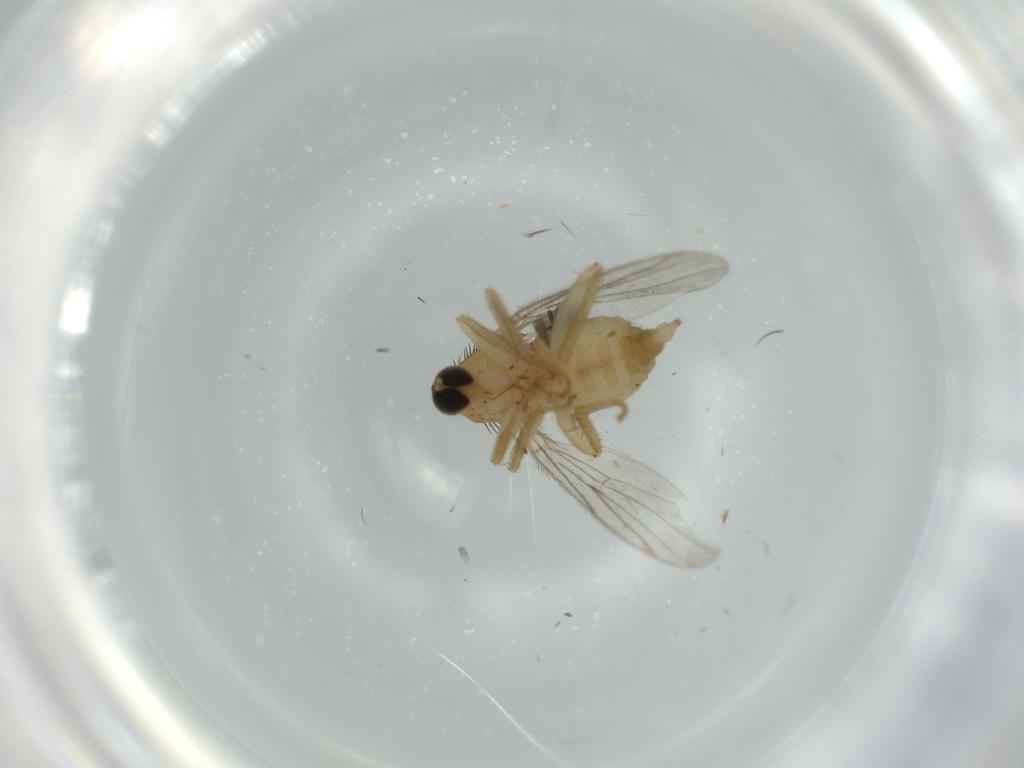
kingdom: Animalia
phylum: Arthropoda
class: Insecta
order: Diptera
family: Hybotidae
